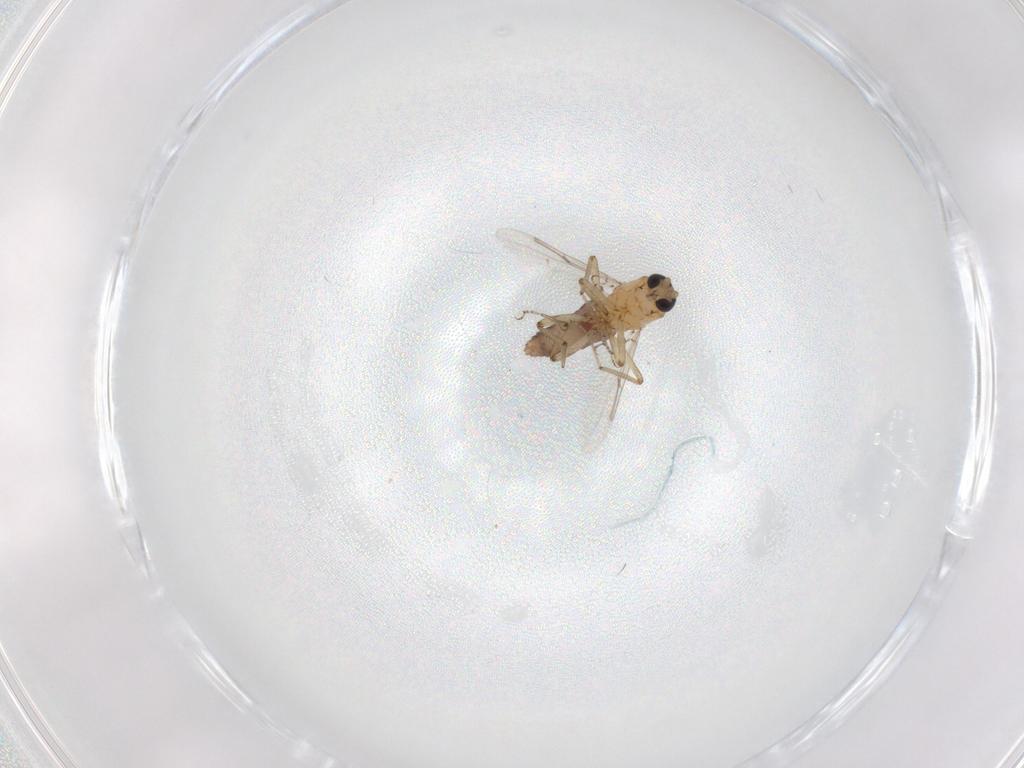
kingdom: Animalia
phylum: Arthropoda
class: Insecta
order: Diptera
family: Ceratopogonidae
